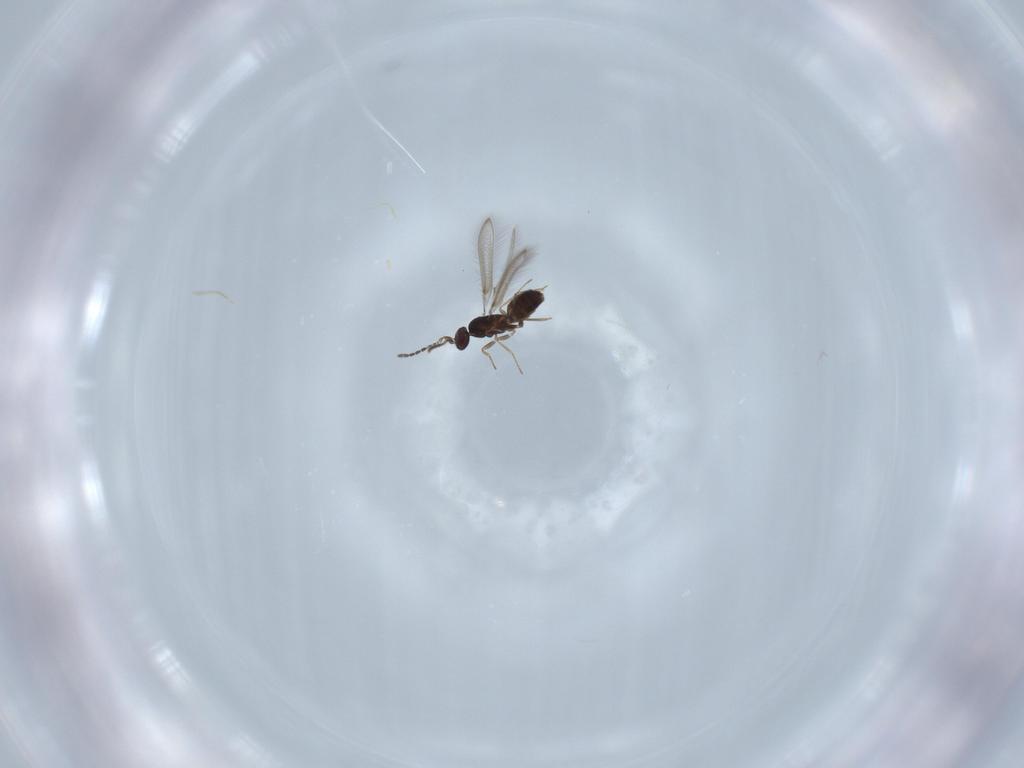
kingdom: Animalia
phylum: Arthropoda
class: Insecta
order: Hymenoptera
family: Mymaridae
